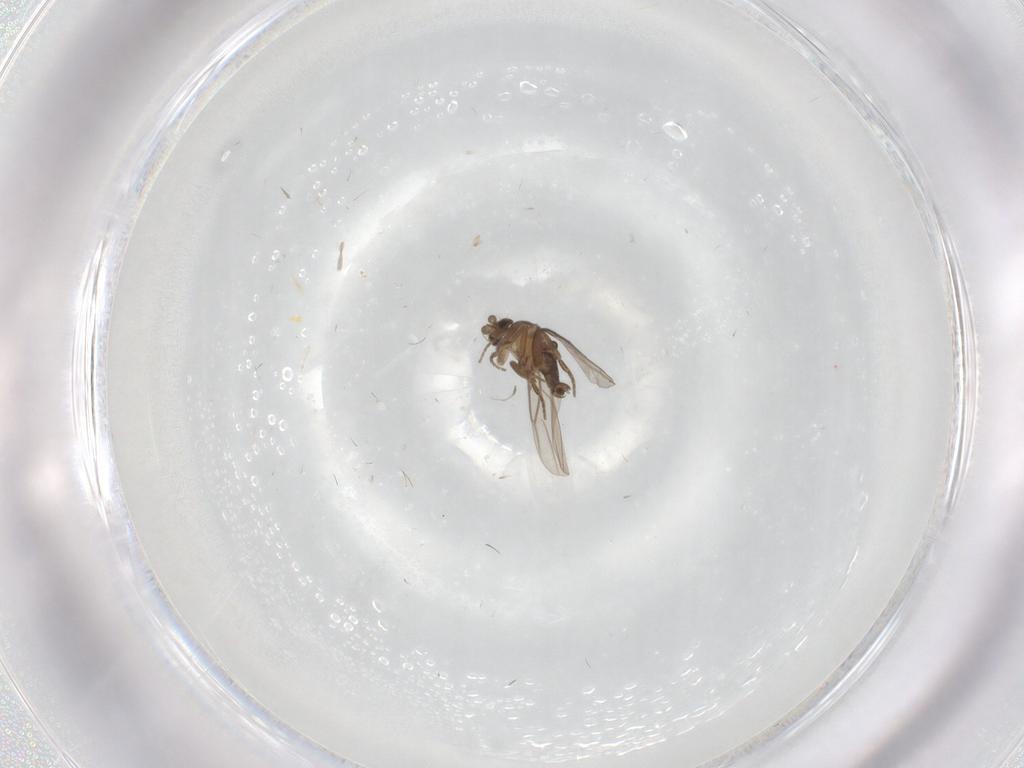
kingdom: Animalia
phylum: Arthropoda
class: Insecta
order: Diptera
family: Phoridae
